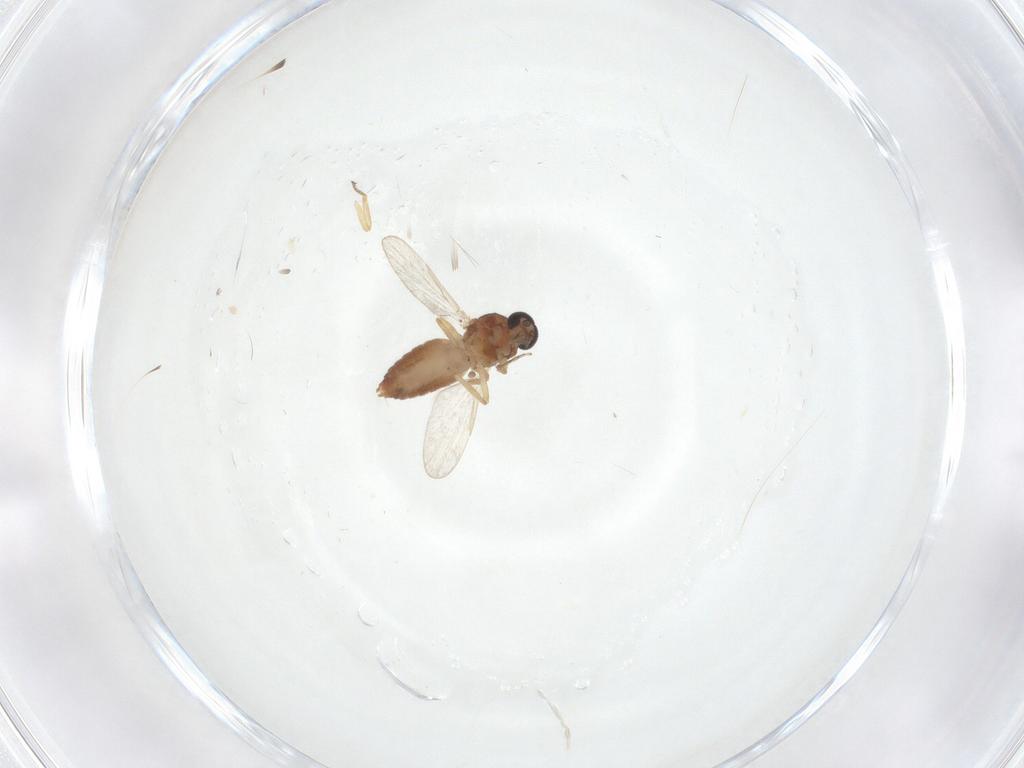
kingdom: Animalia
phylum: Arthropoda
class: Insecta
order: Diptera
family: Ceratopogonidae
